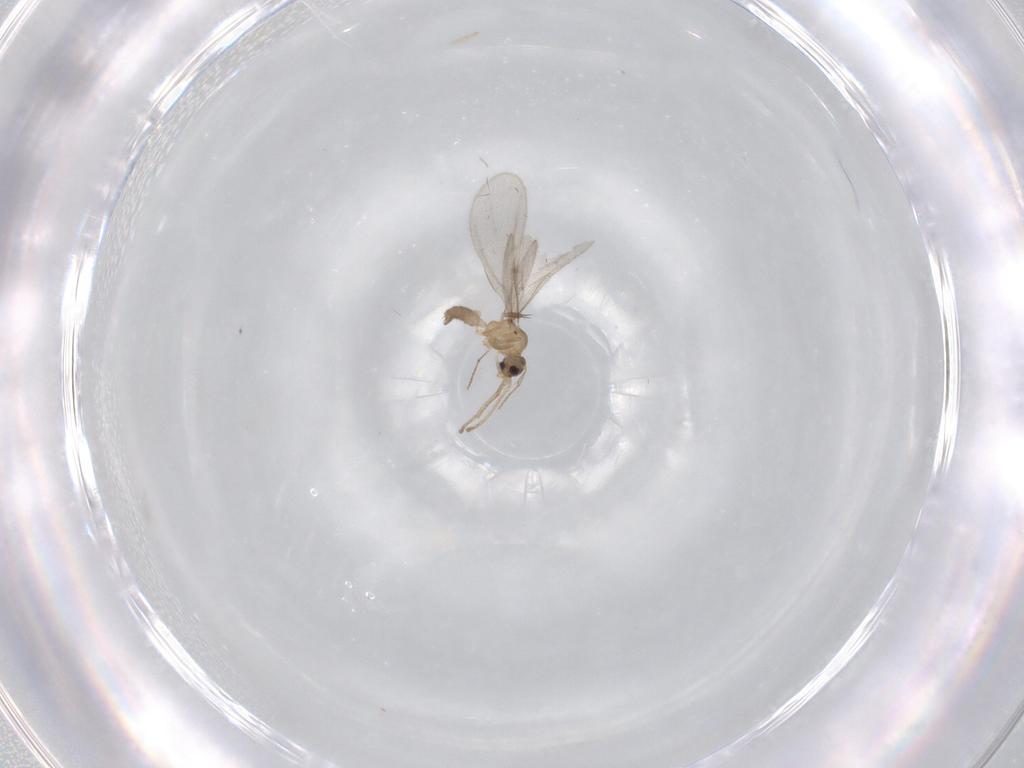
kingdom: Animalia
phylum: Arthropoda
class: Insecta
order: Hymenoptera
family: Formicidae
